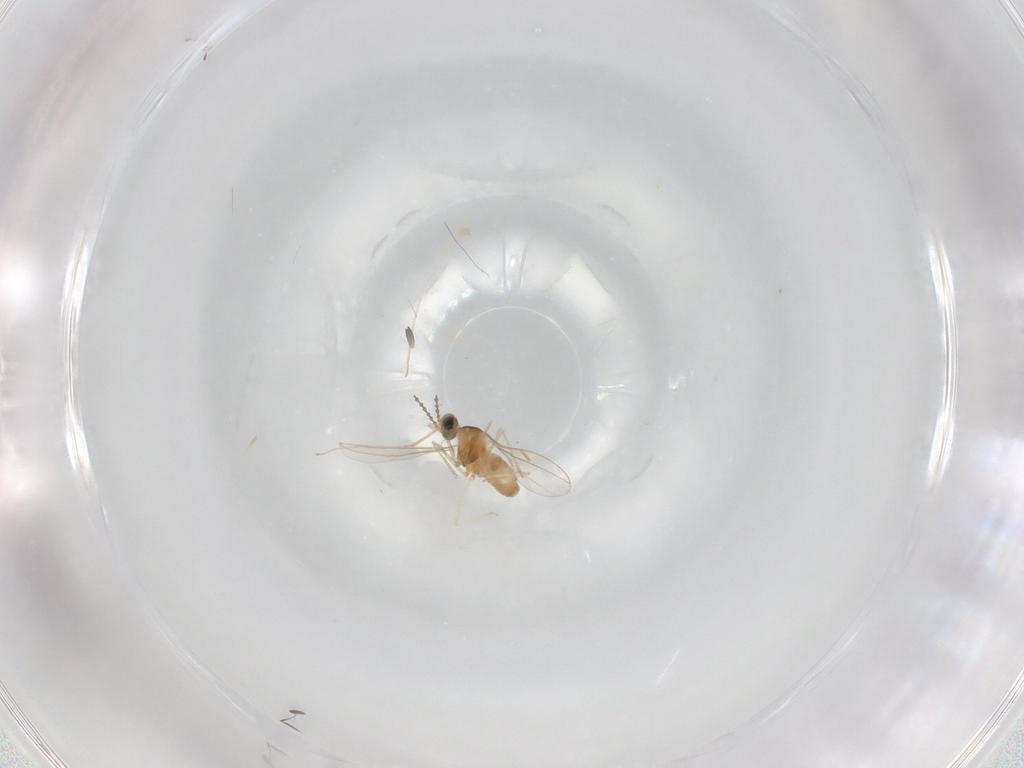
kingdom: Animalia
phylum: Arthropoda
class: Insecta
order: Diptera
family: Cecidomyiidae
